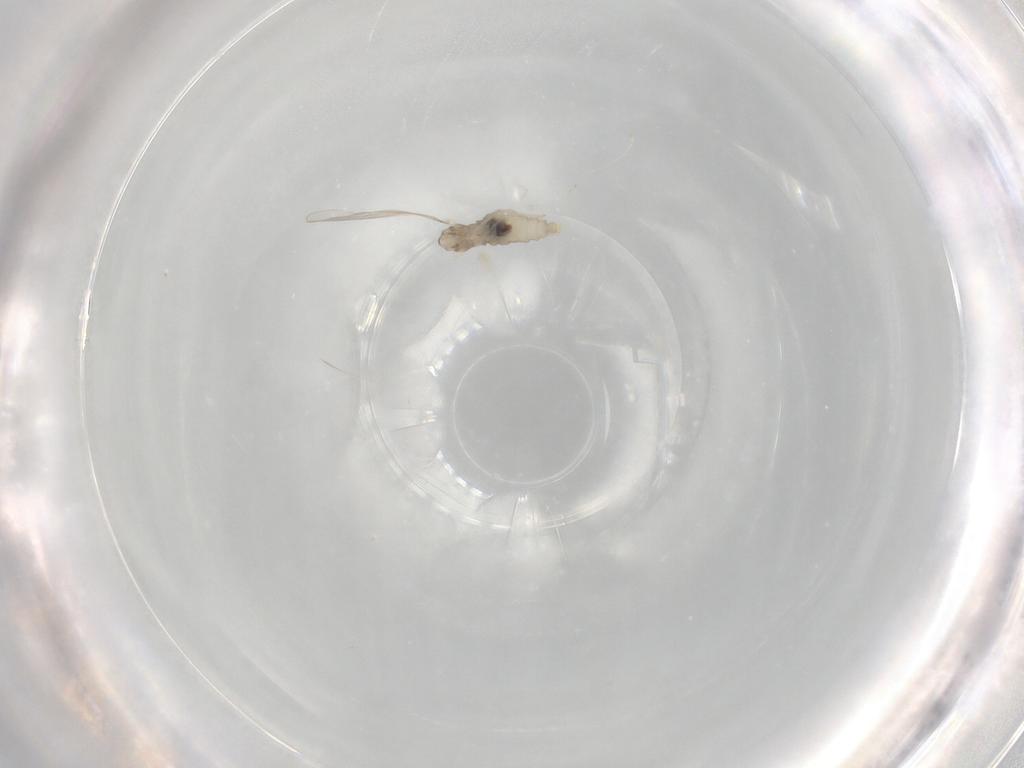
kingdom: Animalia
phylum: Arthropoda
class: Insecta
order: Diptera
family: Cecidomyiidae
